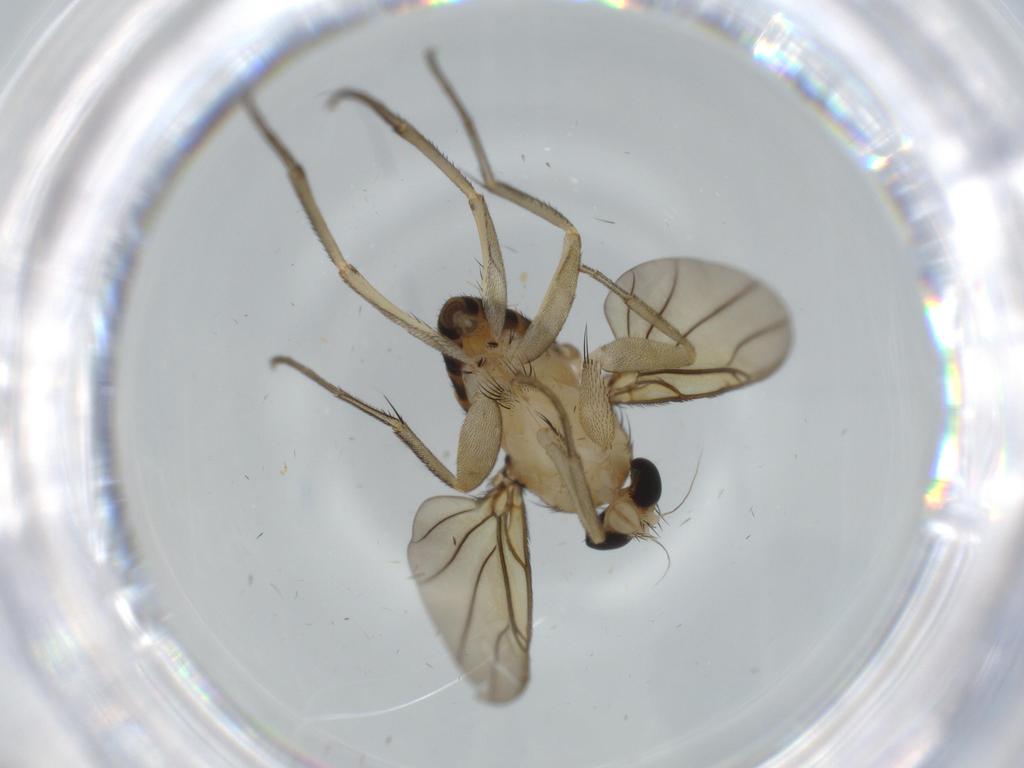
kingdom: Animalia
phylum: Arthropoda
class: Insecta
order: Diptera
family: Phoridae
